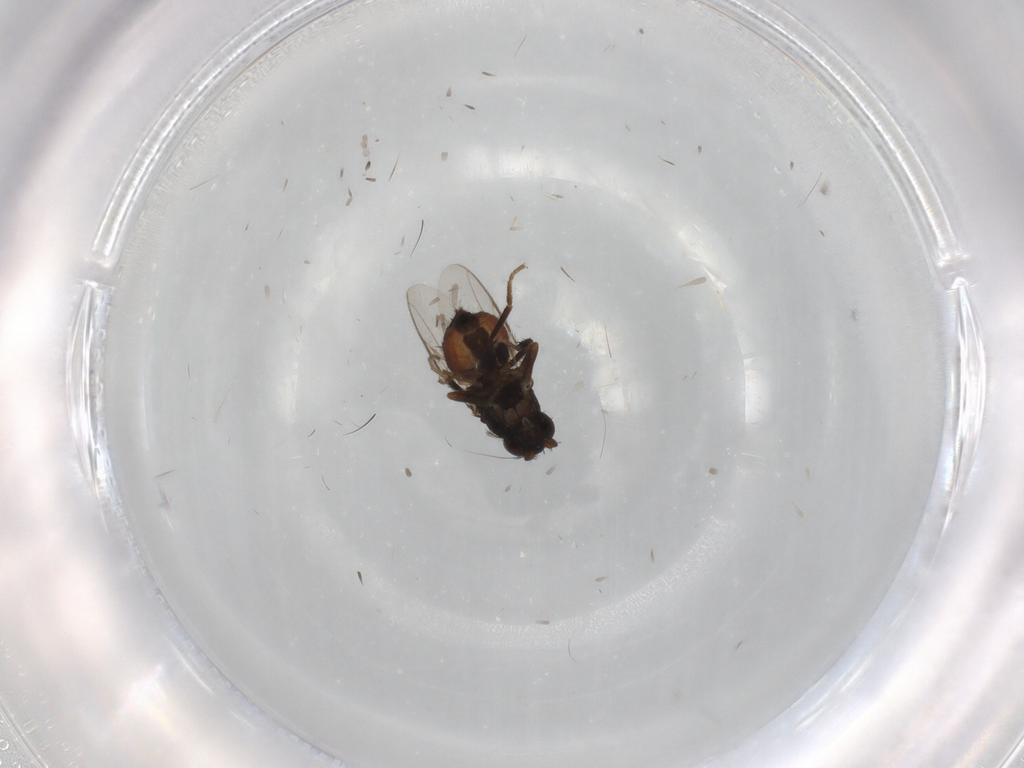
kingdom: Animalia
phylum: Arthropoda
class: Insecta
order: Diptera
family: Sphaeroceridae
